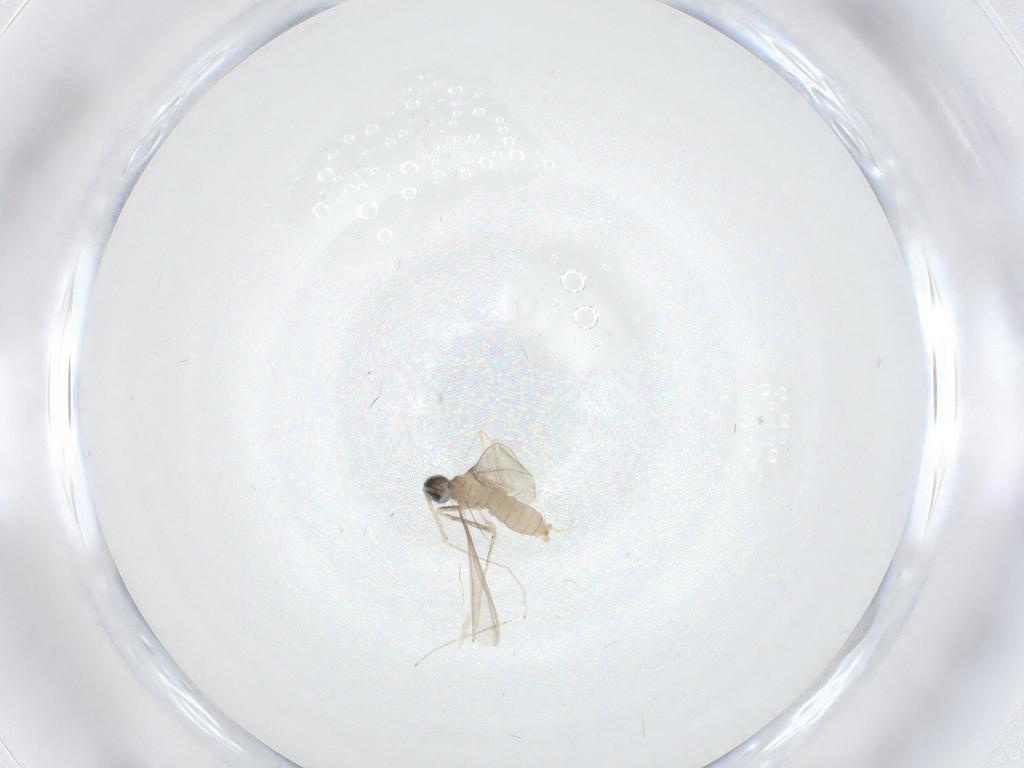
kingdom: Animalia
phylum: Arthropoda
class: Insecta
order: Diptera
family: Cecidomyiidae
